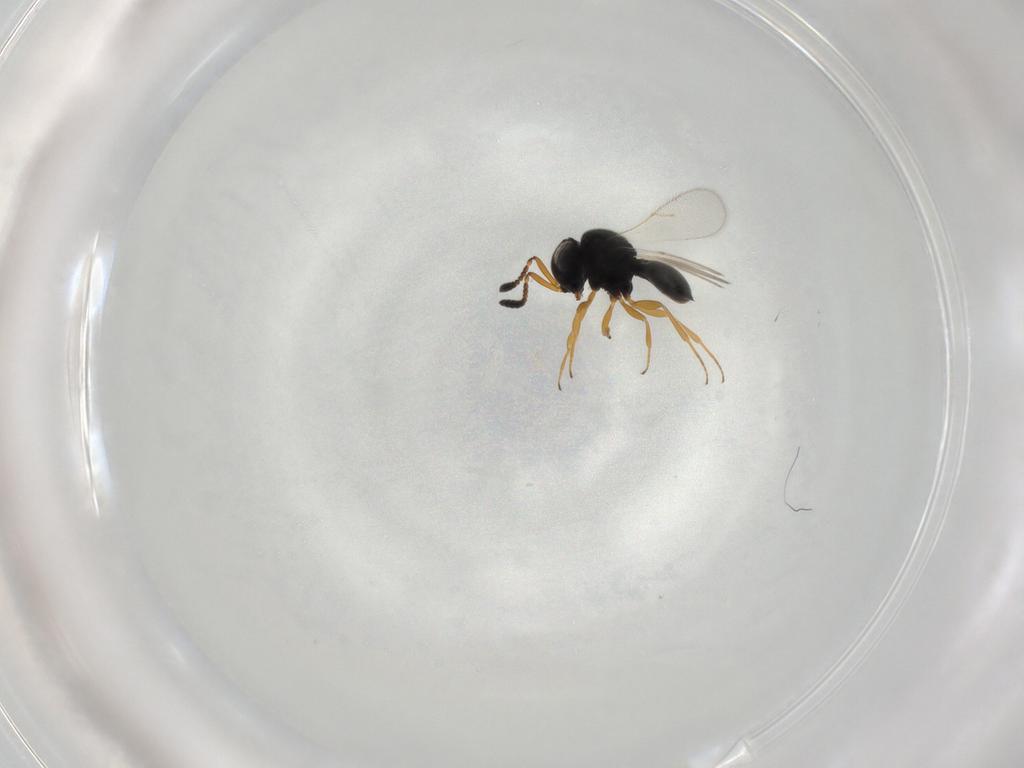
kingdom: Animalia
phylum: Arthropoda
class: Insecta
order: Hymenoptera
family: Scelionidae
